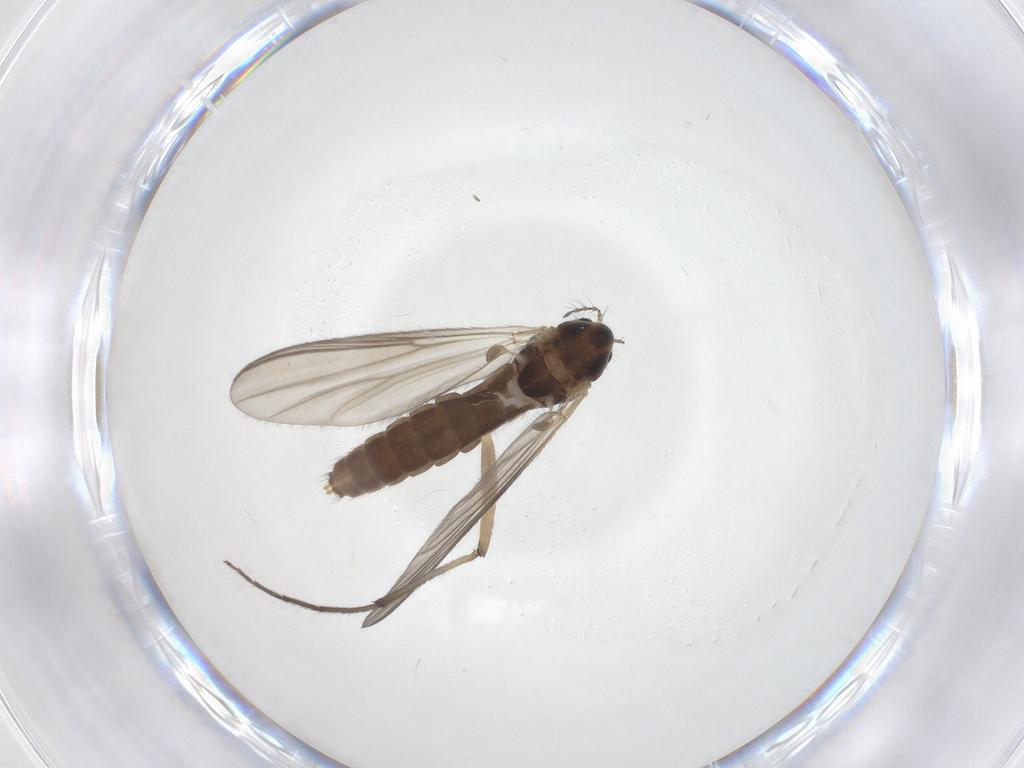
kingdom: Animalia
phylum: Arthropoda
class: Insecta
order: Diptera
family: Chironomidae
